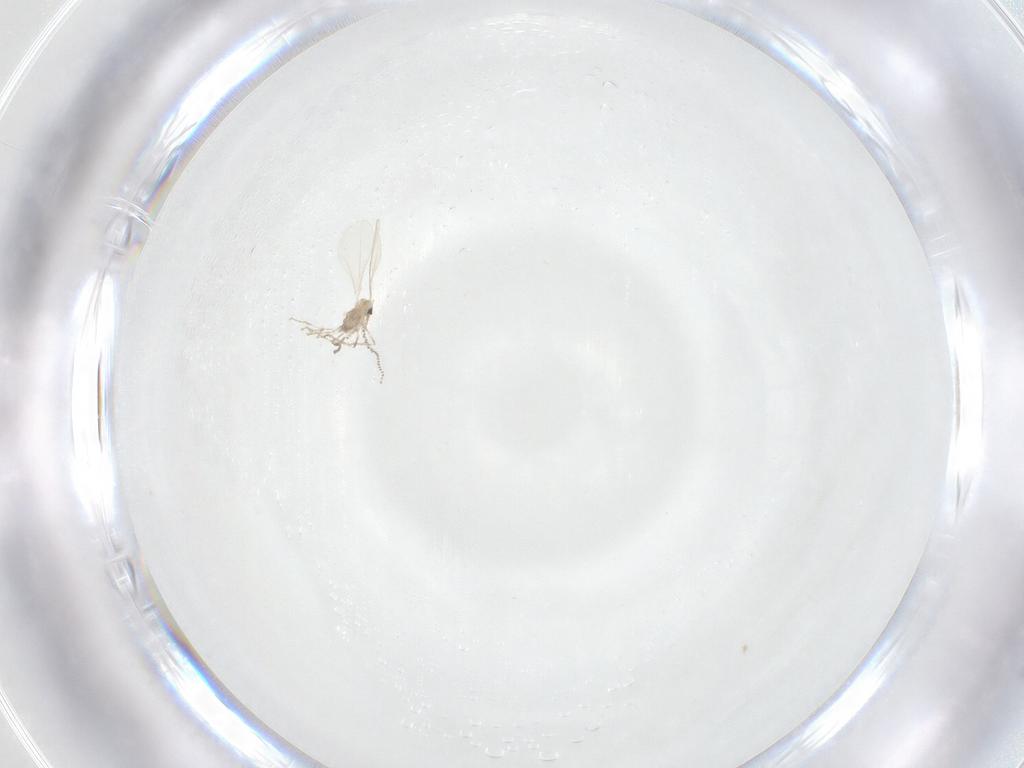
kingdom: Animalia
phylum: Arthropoda
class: Insecta
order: Diptera
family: Cecidomyiidae
